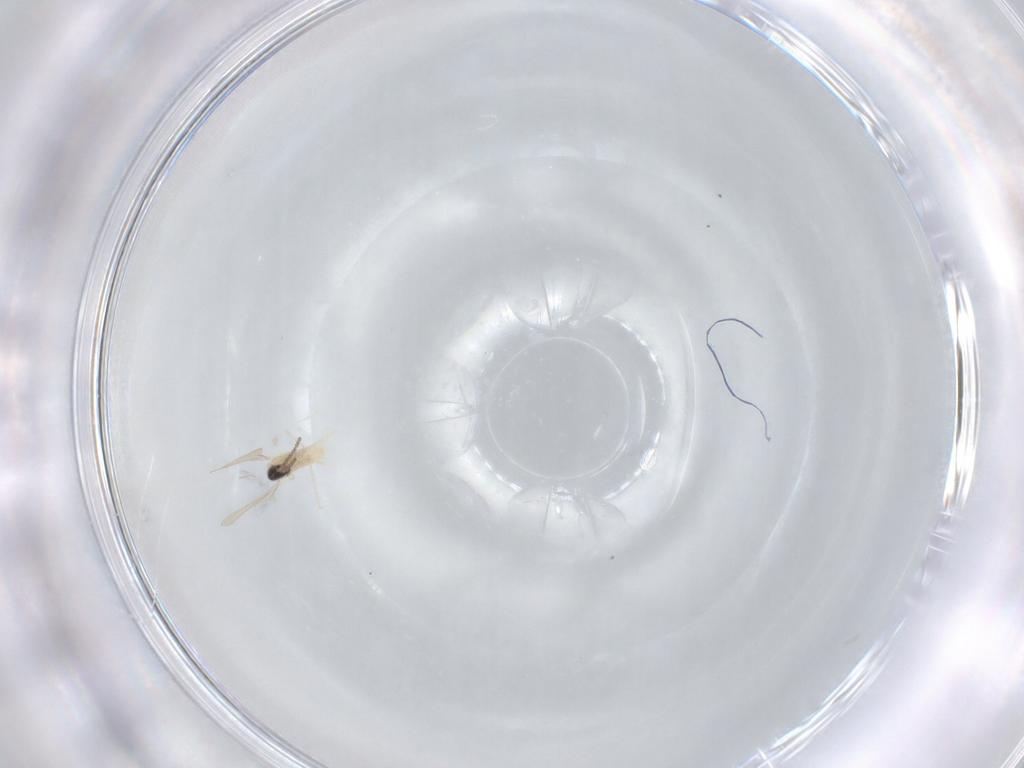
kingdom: Animalia
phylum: Arthropoda
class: Insecta
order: Diptera
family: Cecidomyiidae
